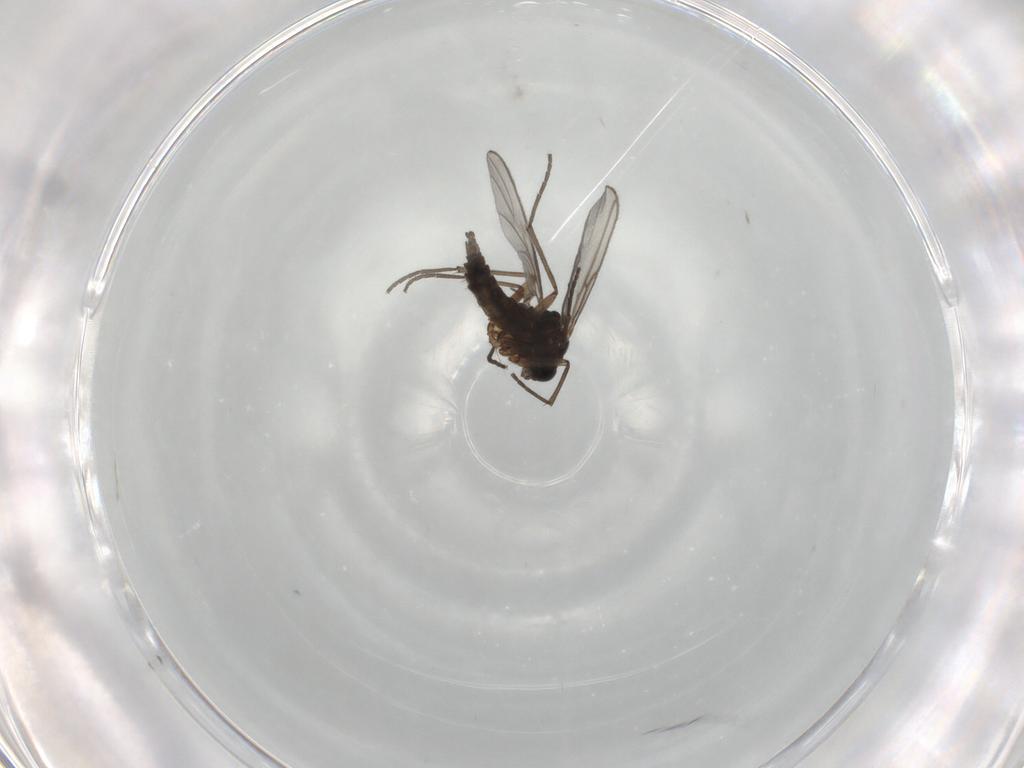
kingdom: Animalia
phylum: Arthropoda
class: Insecta
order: Diptera
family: Sciaridae
